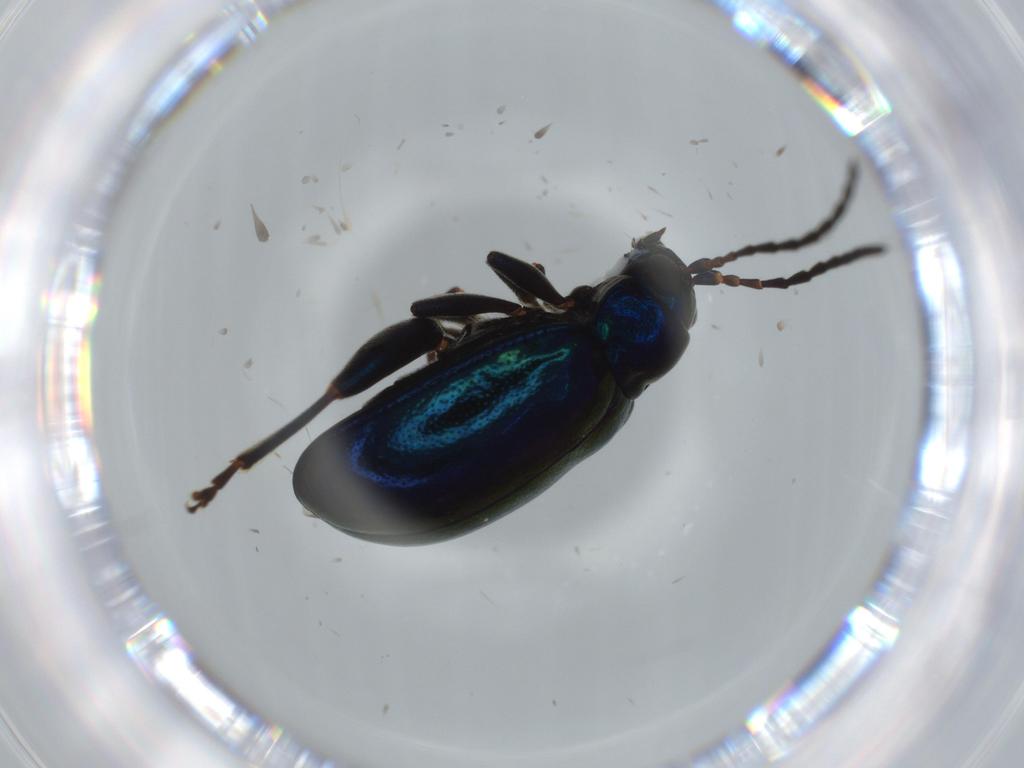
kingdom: Animalia
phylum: Arthropoda
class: Insecta
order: Coleoptera
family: Chrysomelidae
